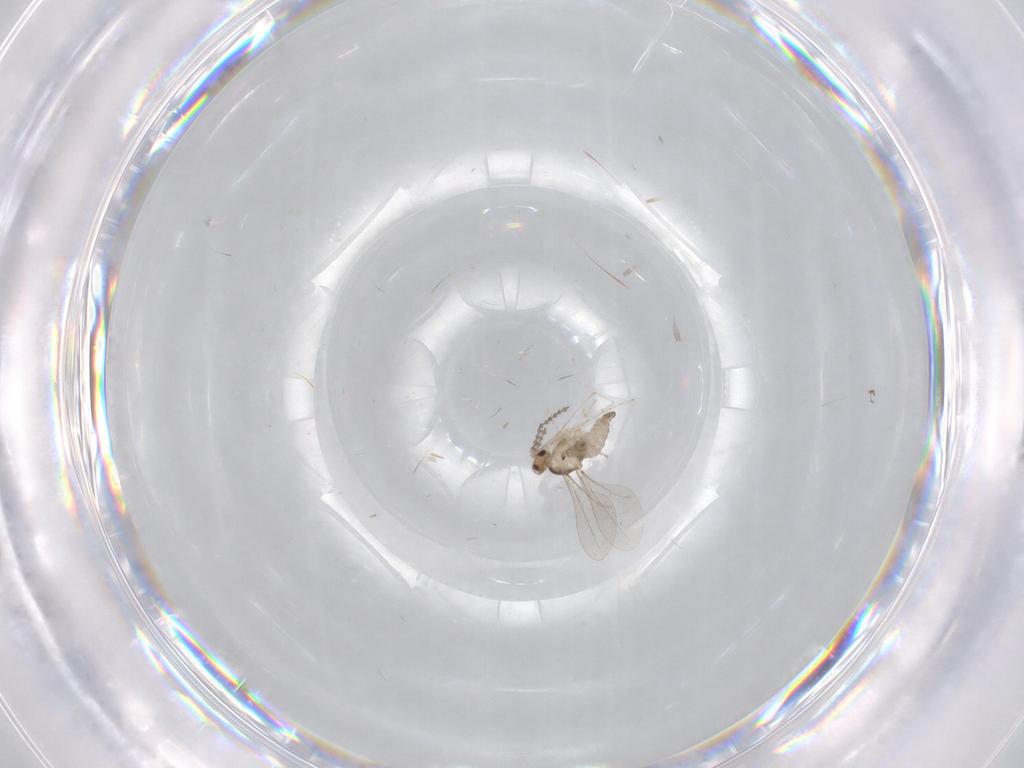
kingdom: Animalia
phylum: Arthropoda
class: Insecta
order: Diptera
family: Cecidomyiidae
